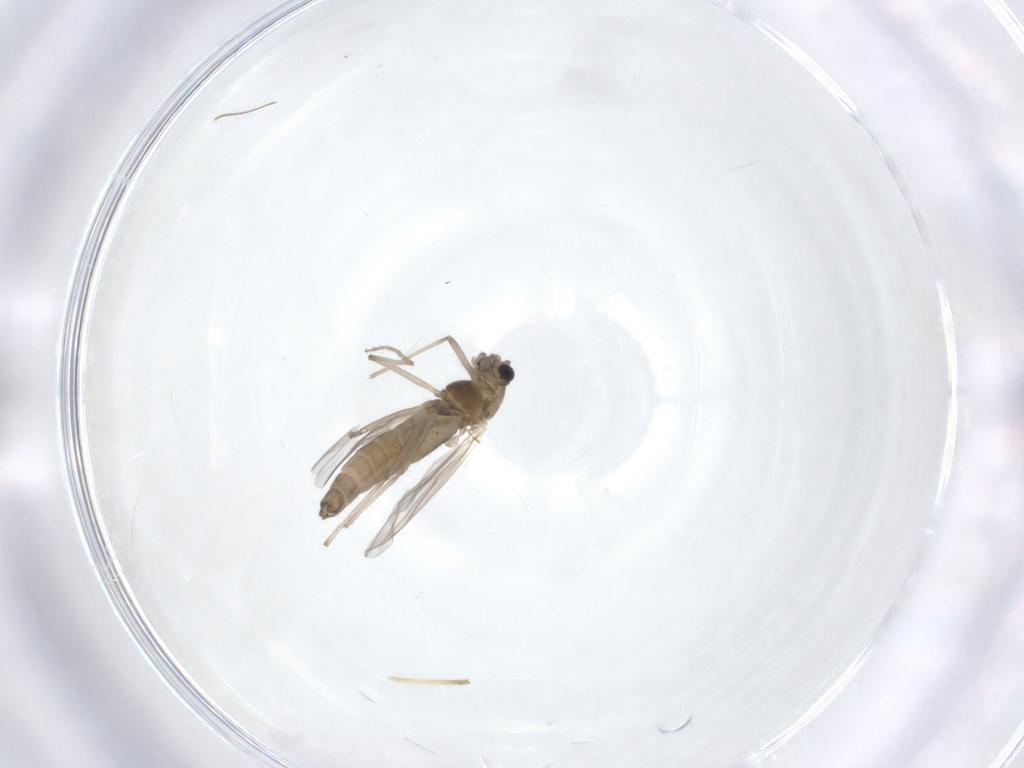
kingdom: Animalia
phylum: Arthropoda
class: Insecta
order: Diptera
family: Chironomidae
